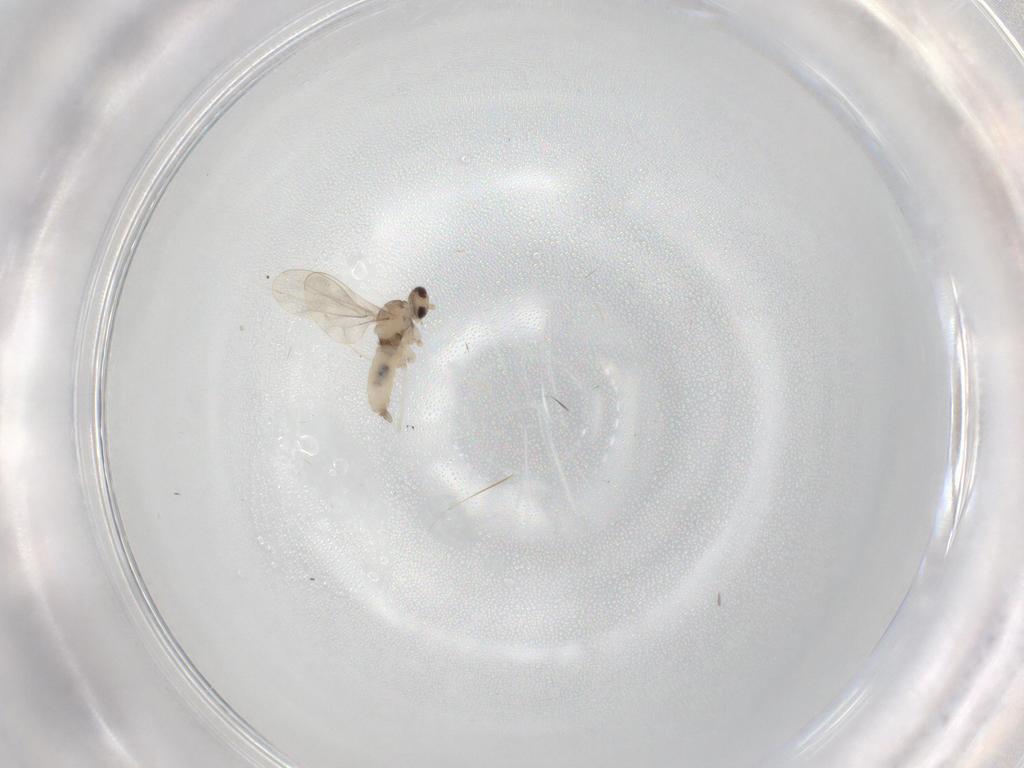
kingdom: Animalia
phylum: Arthropoda
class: Insecta
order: Diptera
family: Cecidomyiidae
